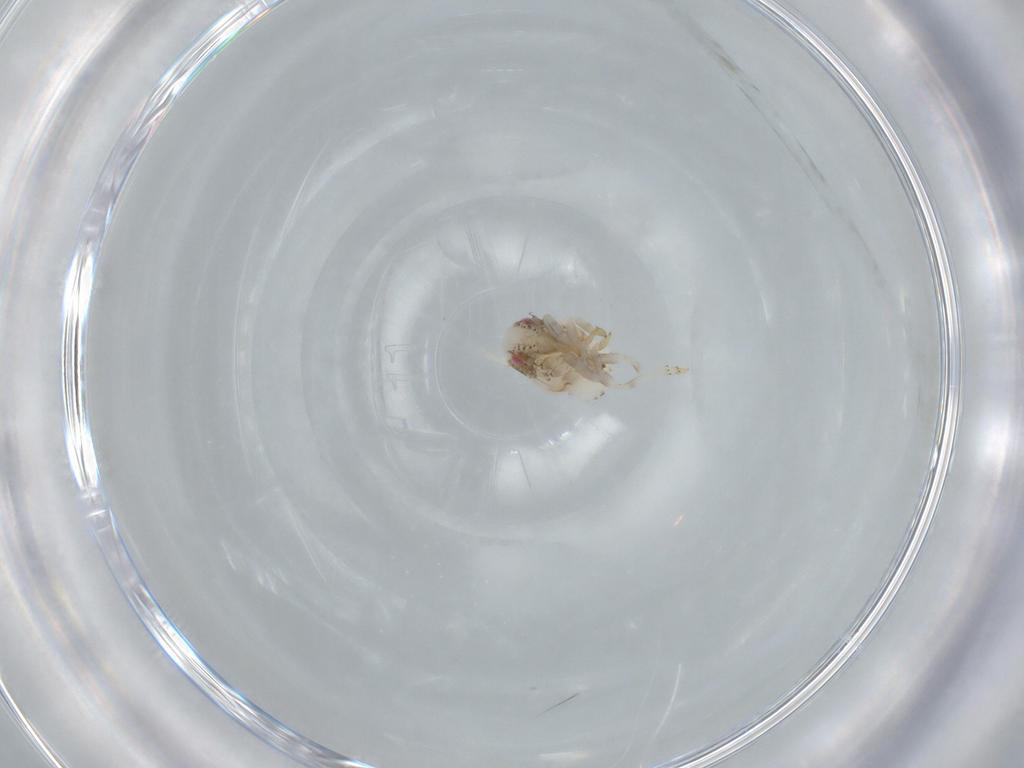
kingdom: Animalia
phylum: Arthropoda
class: Insecta
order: Hemiptera
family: Acanaloniidae
